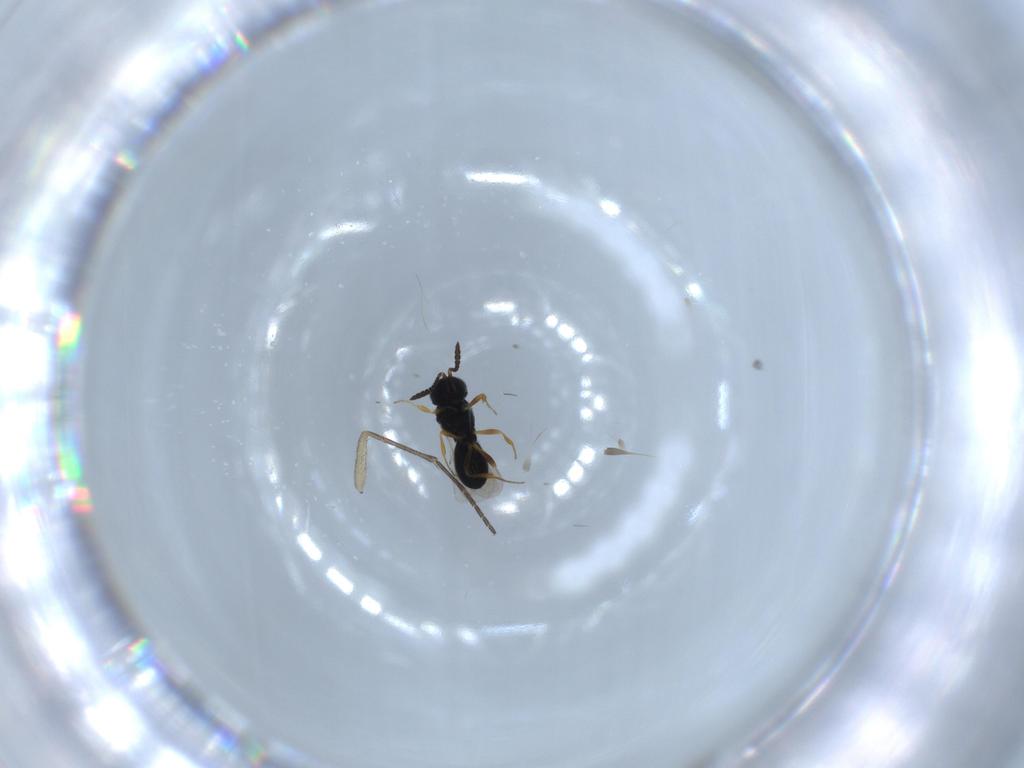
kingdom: Animalia
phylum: Arthropoda
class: Insecta
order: Hymenoptera
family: Scelionidae
